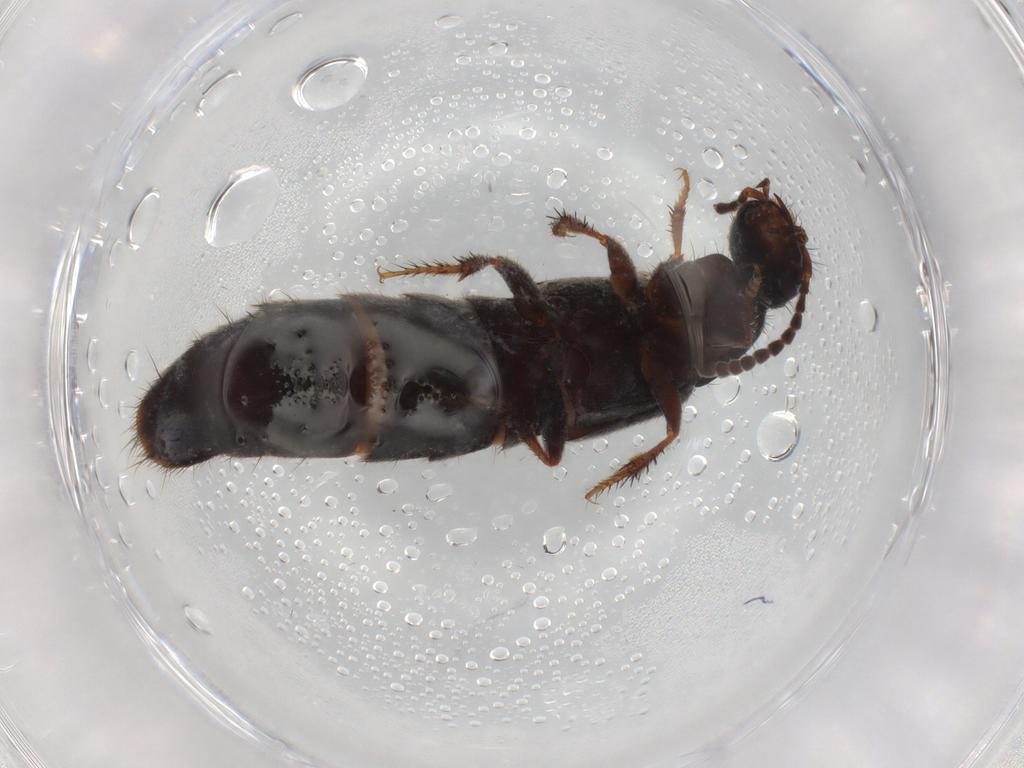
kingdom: Animalia
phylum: Arthropoda
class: Insecta
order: Coleoptera
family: Staphylinidae
